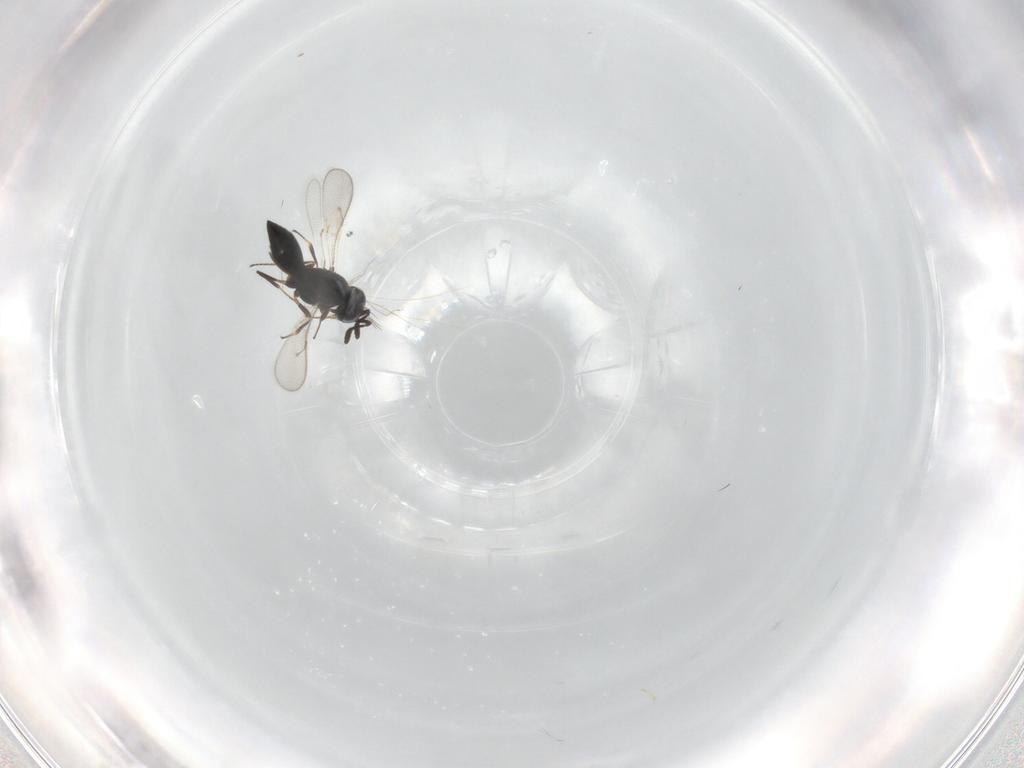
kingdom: Animalia
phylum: Arthropoda
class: Insecta
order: Hymenoptera
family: Scelionidae
